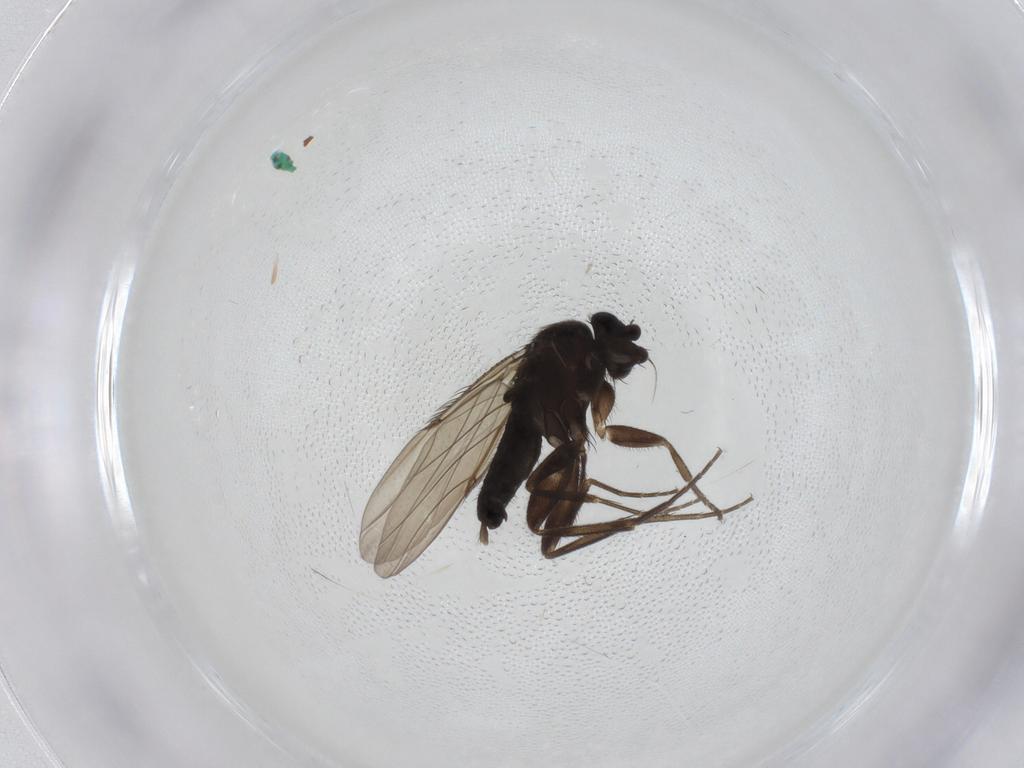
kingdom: Animalia
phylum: Arthropoda
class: Insecta
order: Diptera
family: Phoridae
